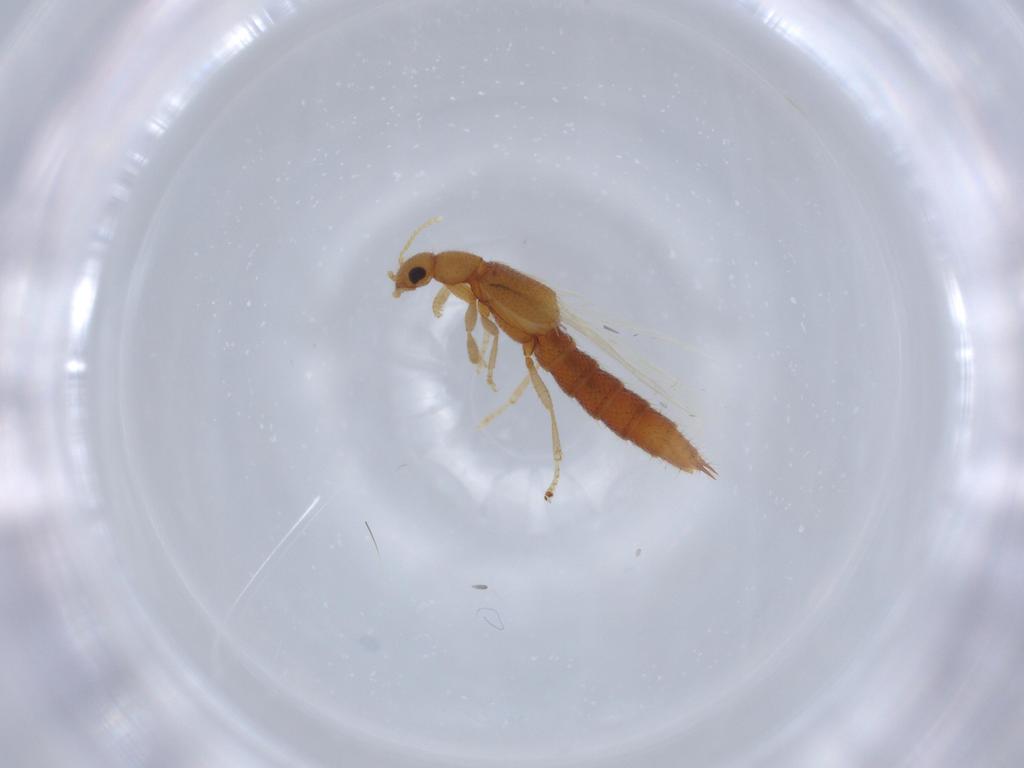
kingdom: Animalia
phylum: Arthropoda
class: Insecta
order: Coleoptera
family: Staphylinidae
